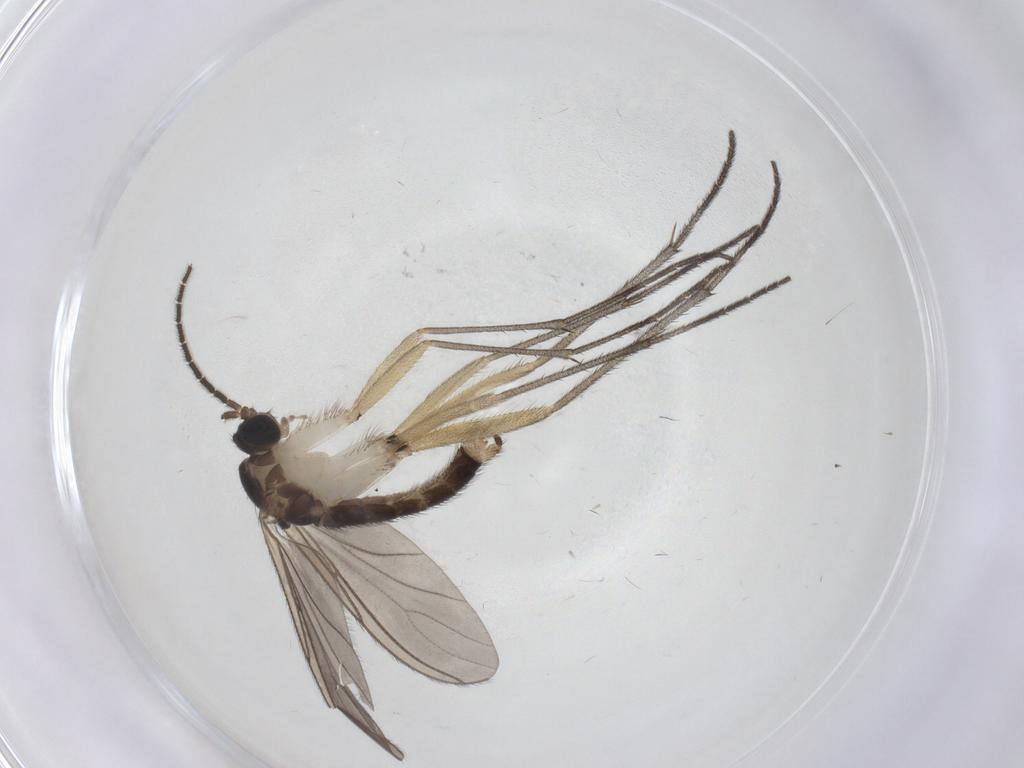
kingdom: Animalia
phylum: Arthropoda
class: Insecta
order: Diptera
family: Sciaridae
